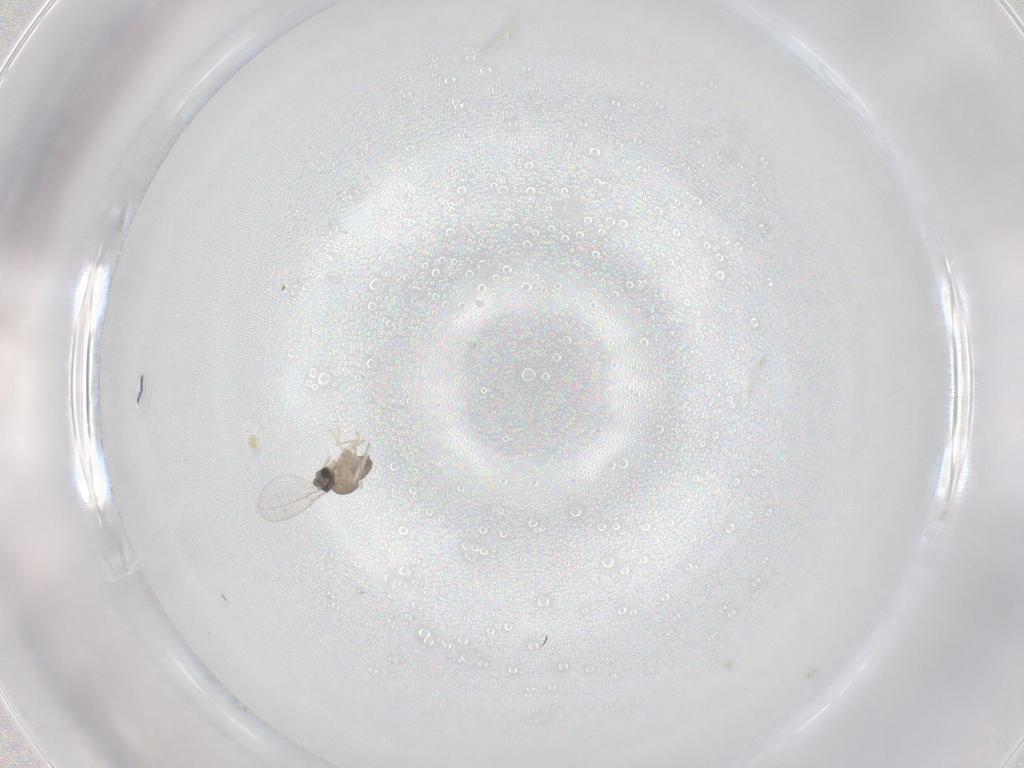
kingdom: Animalia
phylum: Arthropoda
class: Insecta
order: Diptera
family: Cecidomyiidae
